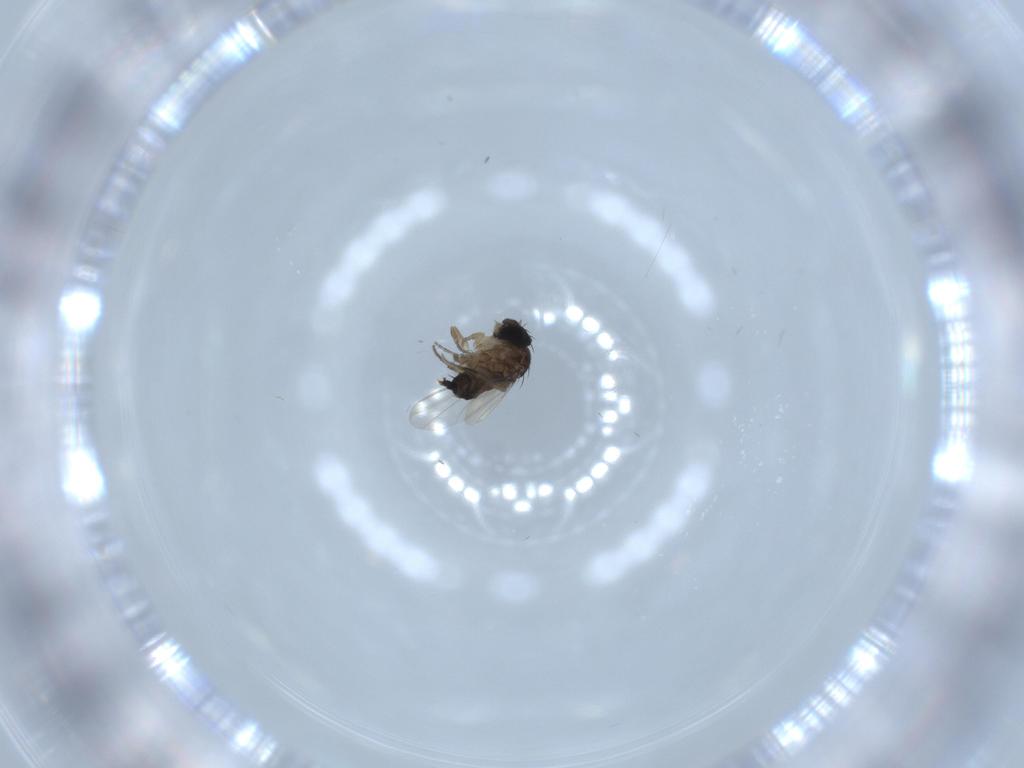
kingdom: Animalia
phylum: Arthropoda
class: Insecta
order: Diptera
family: Phoridae
